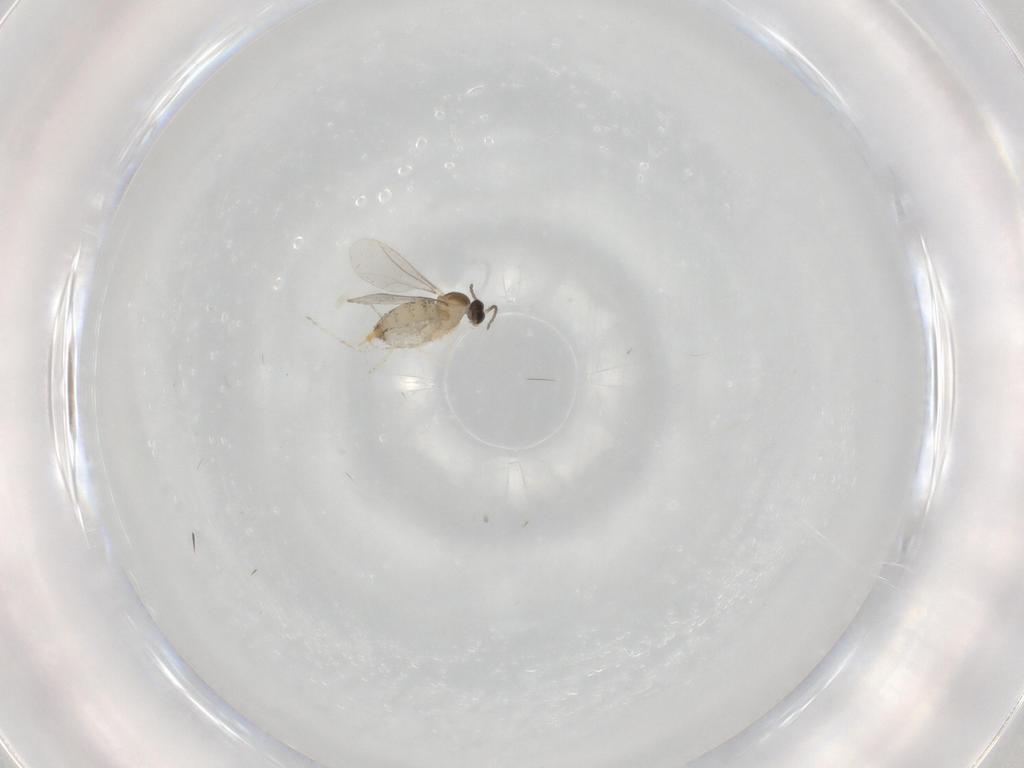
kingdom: Animalia
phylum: Arthropoda
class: Insecta
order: Diptera
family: Cecidomyiidae
